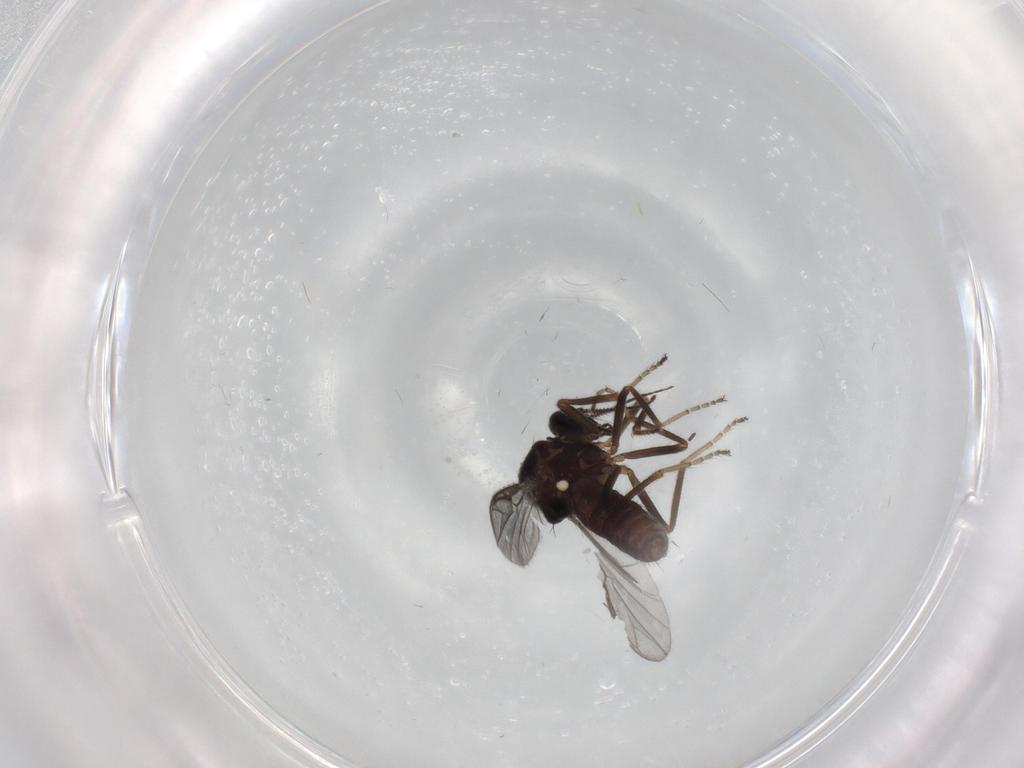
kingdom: Animalia
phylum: Arthropoda
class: Insecta
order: Diptera
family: Ceratopogonidae
